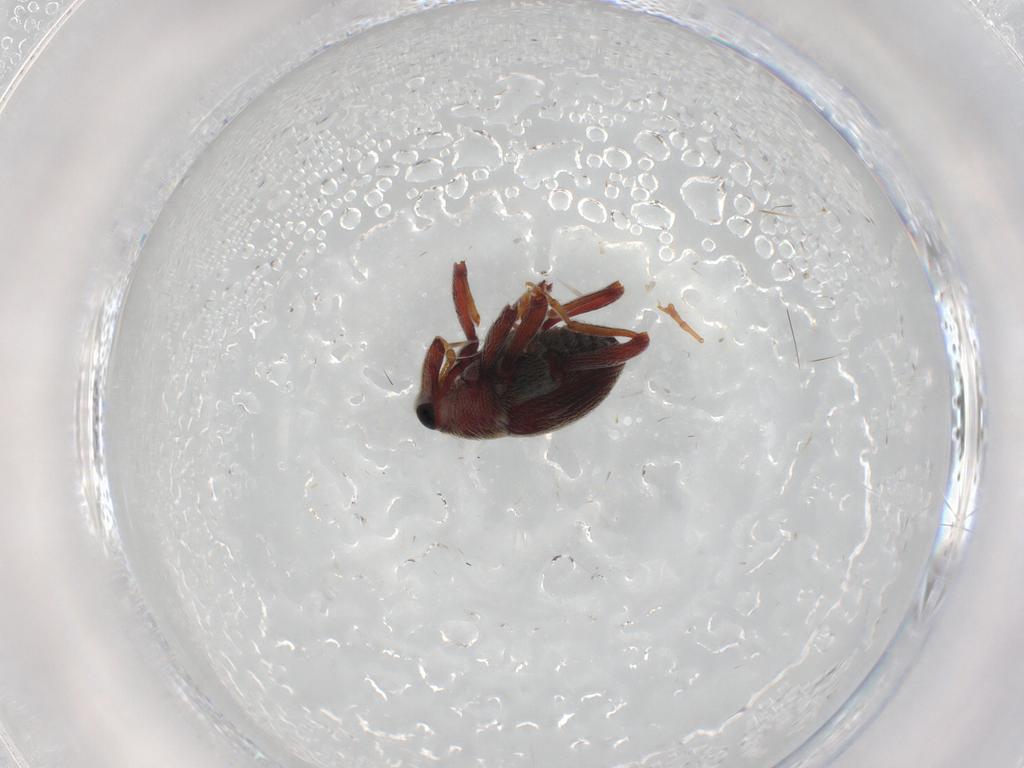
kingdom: Animalia
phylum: Arthropoda
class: Insecta
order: Coleoptera
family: Curculionidae
